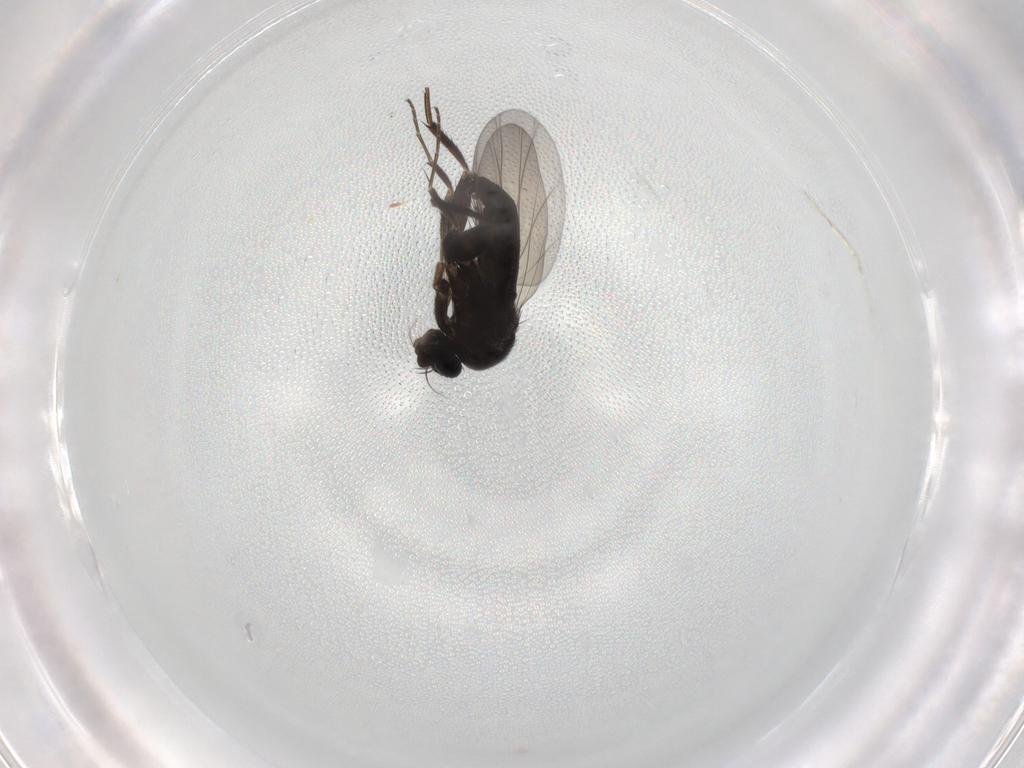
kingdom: Animalia
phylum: Arthropoda
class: Insecta
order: Diptera
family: Phoridae
